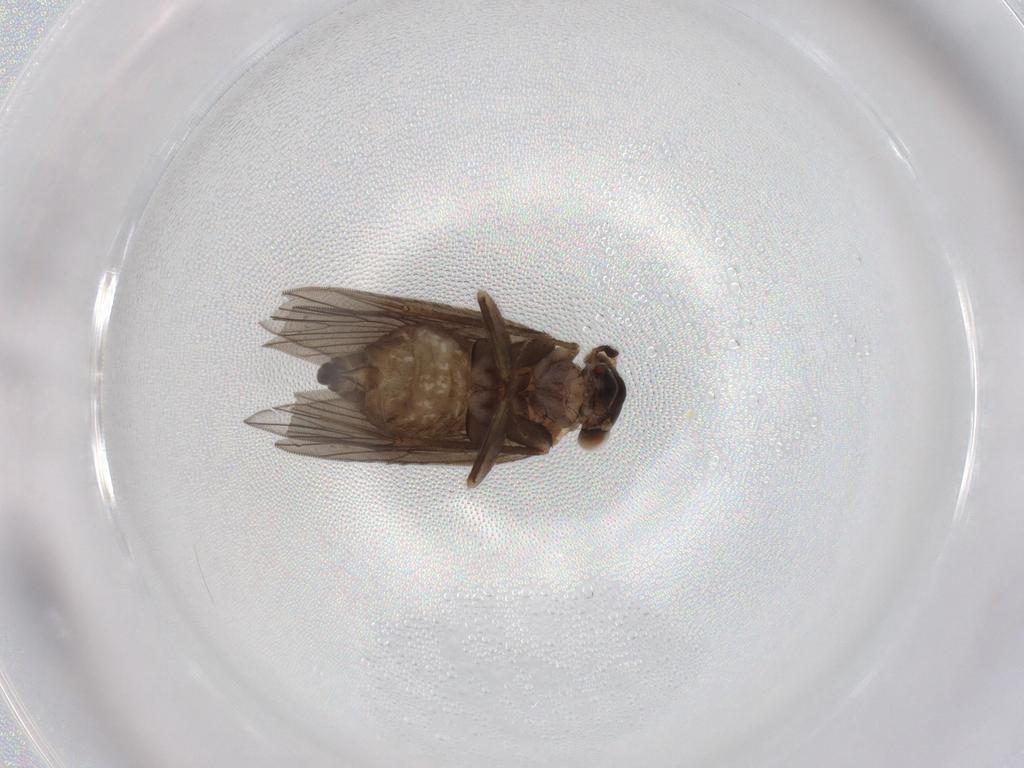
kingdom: Animalia
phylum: Arthropoda
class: Insecta
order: Psocodea
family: Lepidopsocidae
